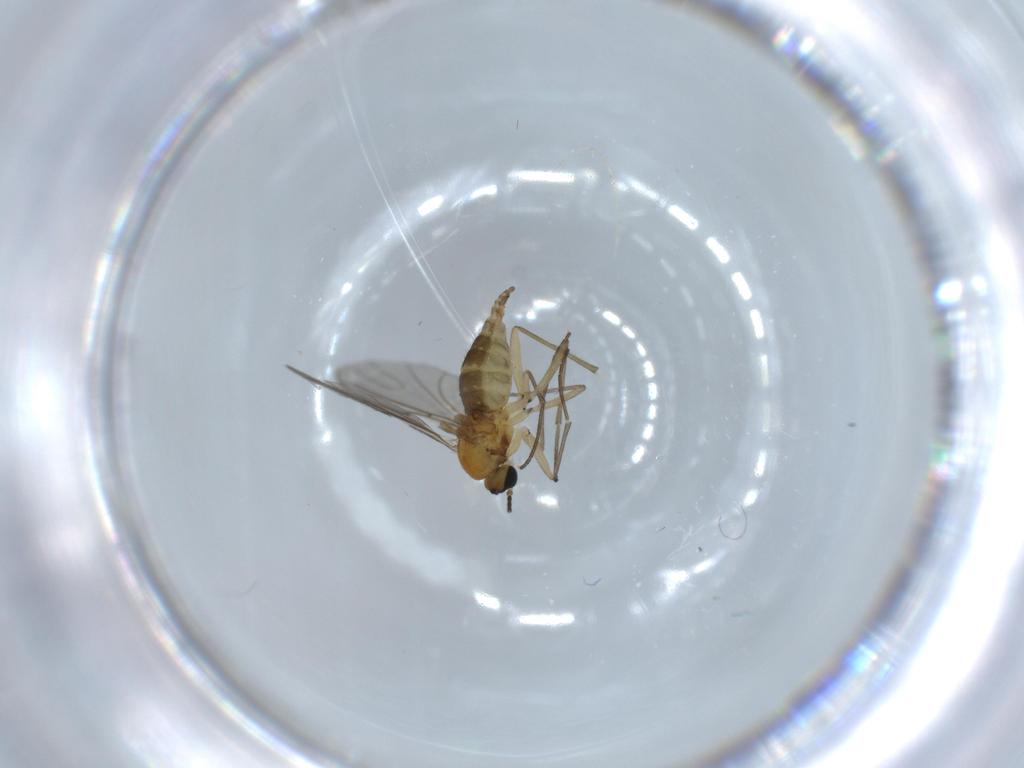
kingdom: Animalia
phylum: Arthropoda
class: Insecta
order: Diptera
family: Sciaridae
